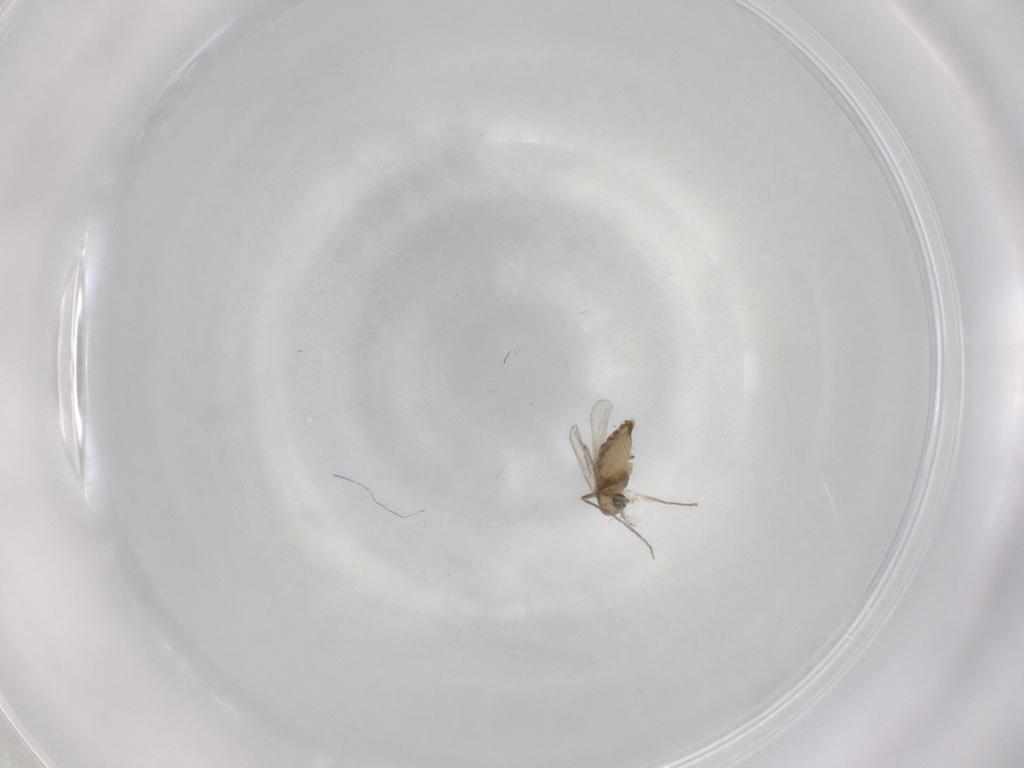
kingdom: Animalia
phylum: Arthropoda
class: Insecta
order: Diptera
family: Chironomidae
